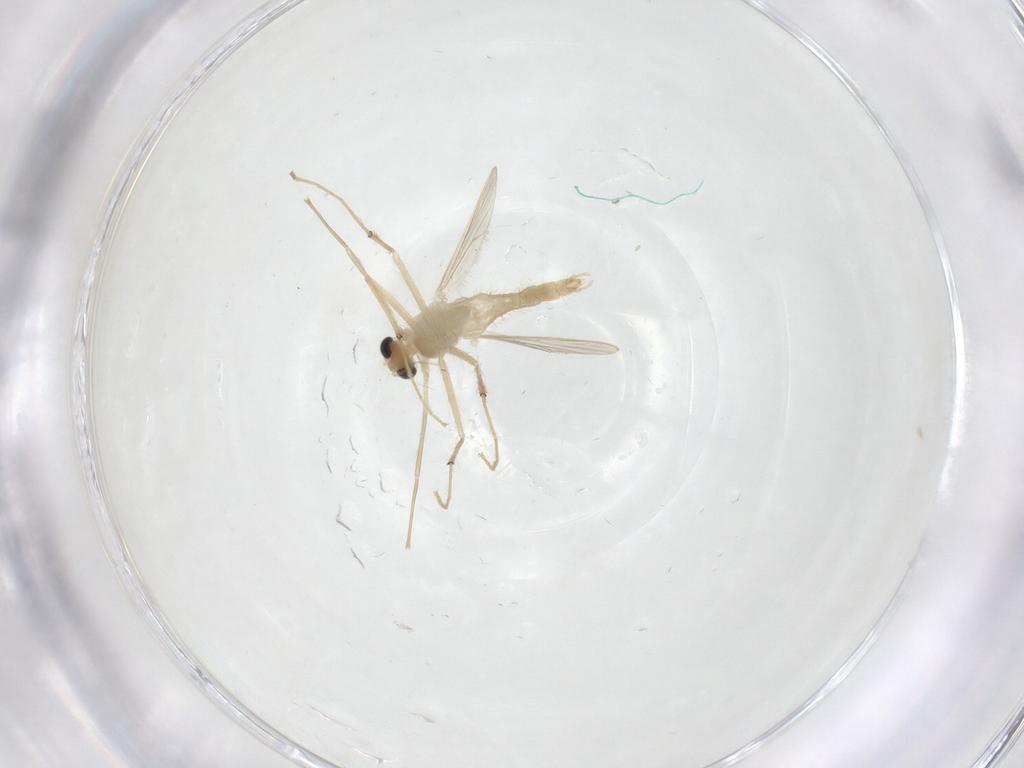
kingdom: Animalia
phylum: Arthropoda
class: Insecta
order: Diptera
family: Chironomidae
